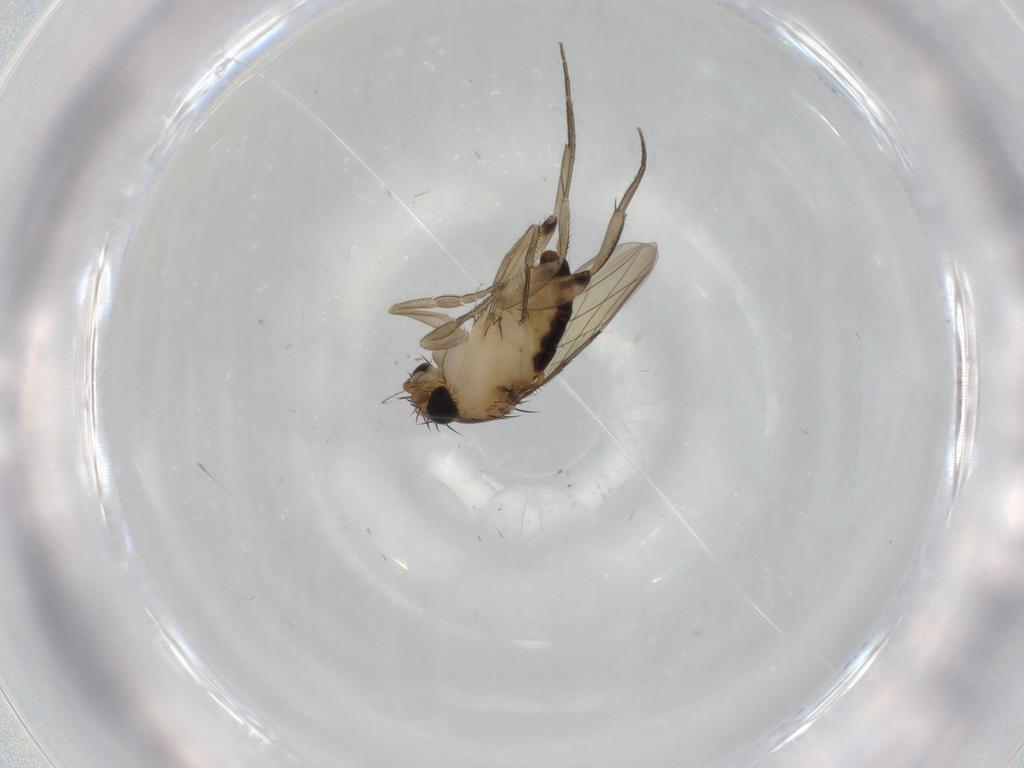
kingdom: Animalia
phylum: Arthropoda
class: Insecta
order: Diptera
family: Phoridae
